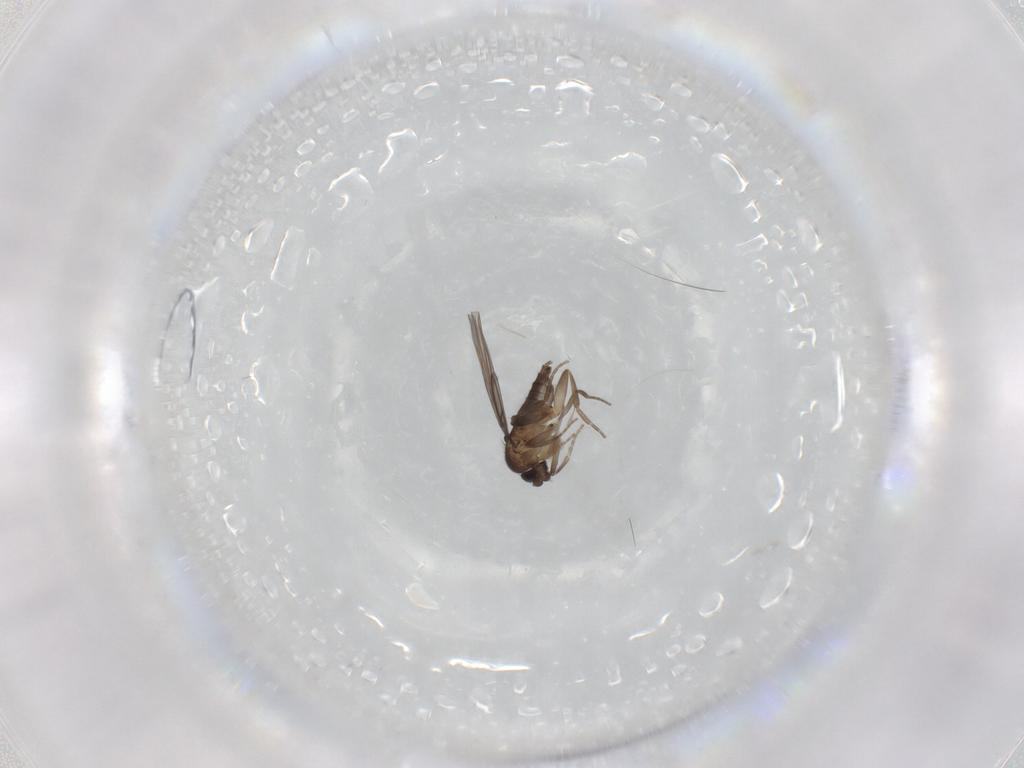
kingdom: Animalia
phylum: Arthropoda
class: Insecta
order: Diptera
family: Phoridae
